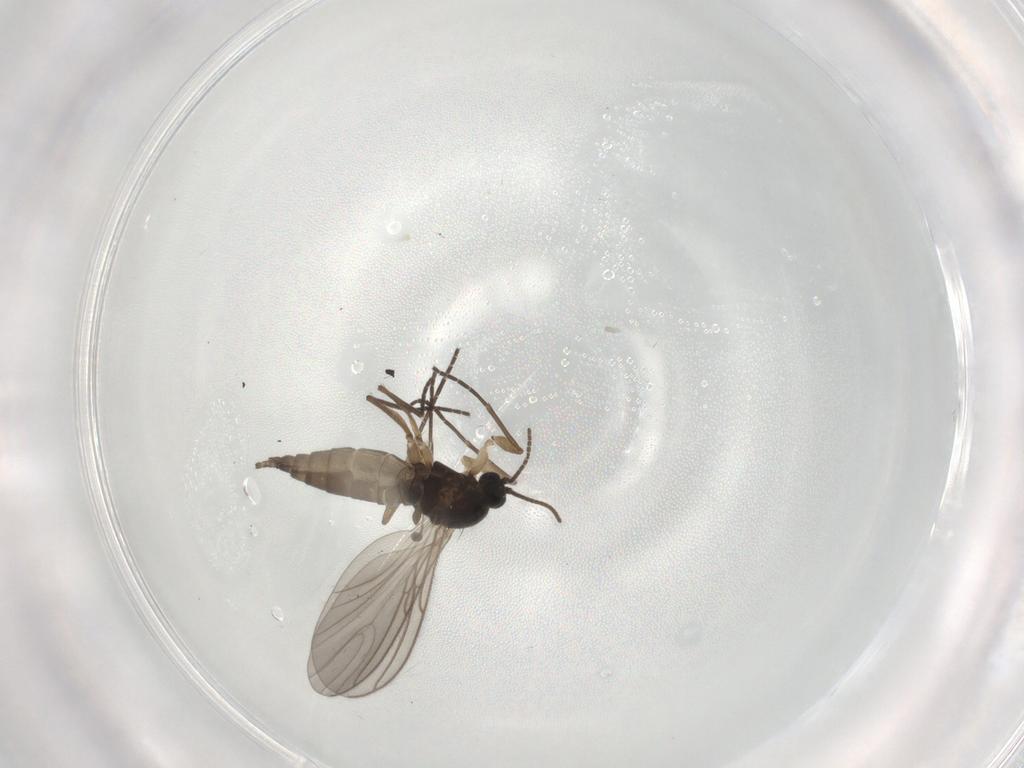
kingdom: Animalia
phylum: Arthropoda
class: Insecta
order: Diptera
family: Sciaridae
